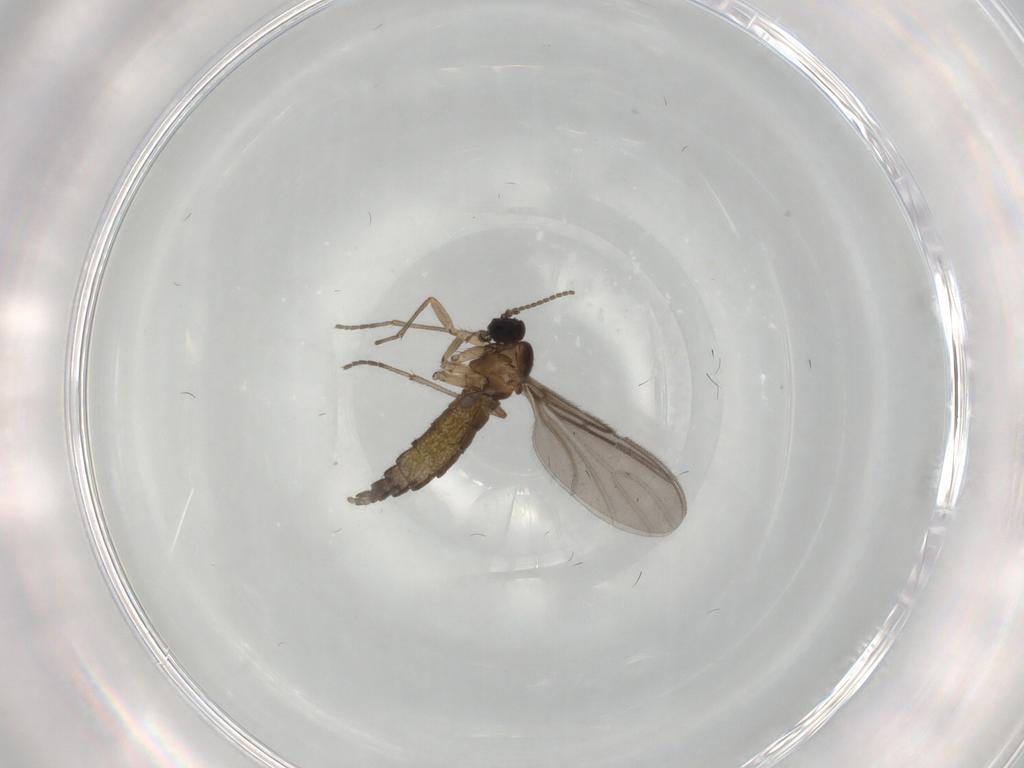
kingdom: Animalia
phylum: Arthropoda
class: Insecta
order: Diptera
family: Sciaridae
